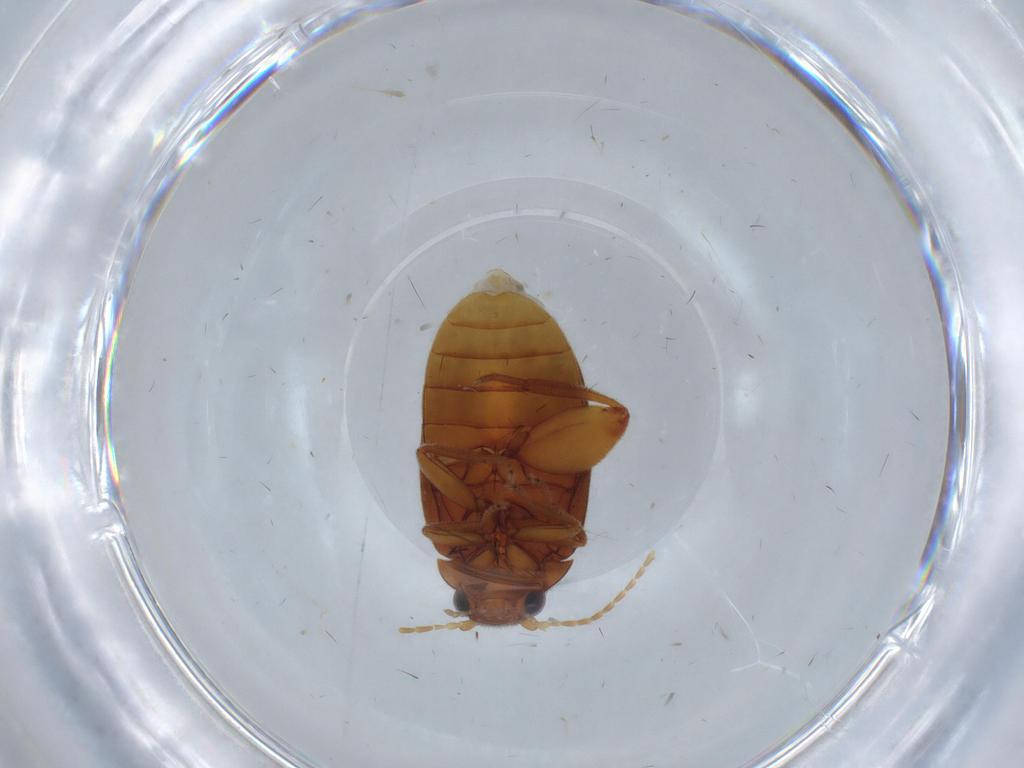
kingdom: Animalia
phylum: Arthropoda
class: Insecta
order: Coleoptera
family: Scirtidae
